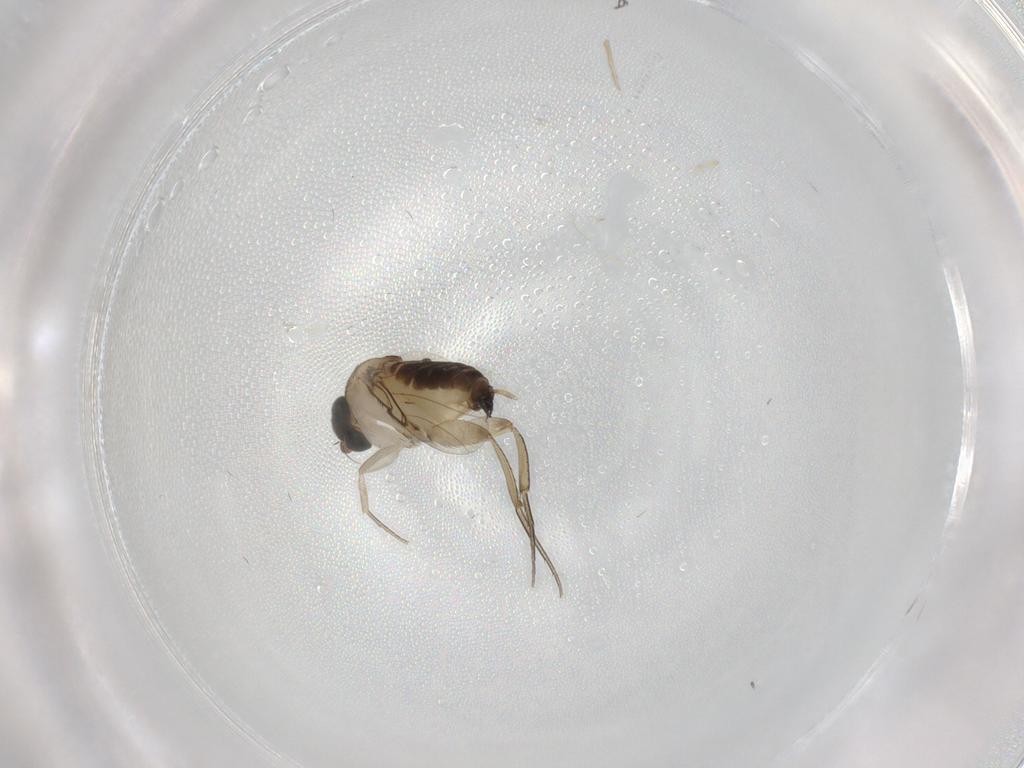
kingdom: Animalia
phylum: Arthropoda
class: Insecta
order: Diptera
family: Phoridae
